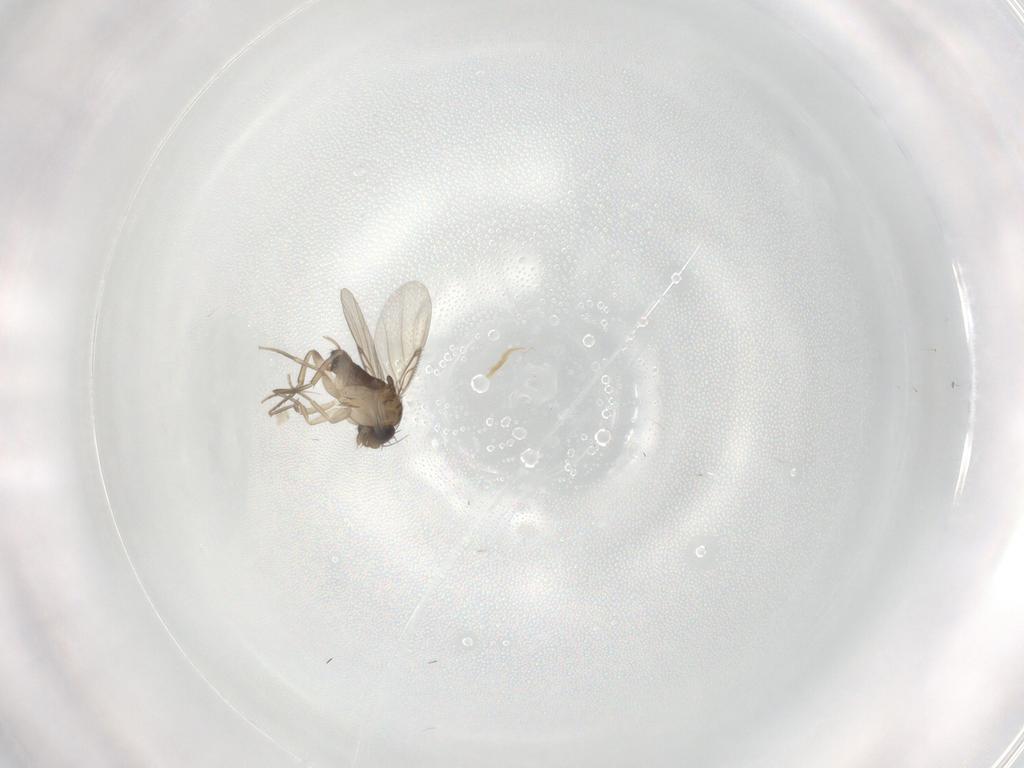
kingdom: Animalia
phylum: Arthropoda
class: Insecta
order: Diptera
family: Phoridae
